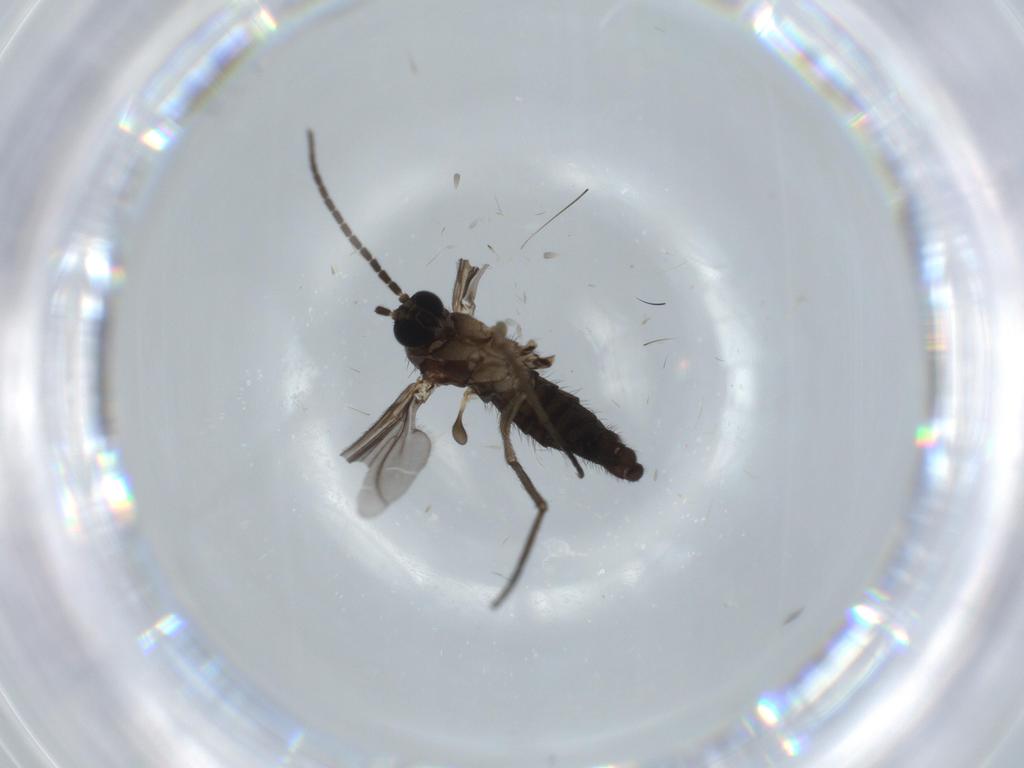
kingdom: Animalia
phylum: Arthropoda
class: Insecta
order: Diptera
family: Sciaridae
